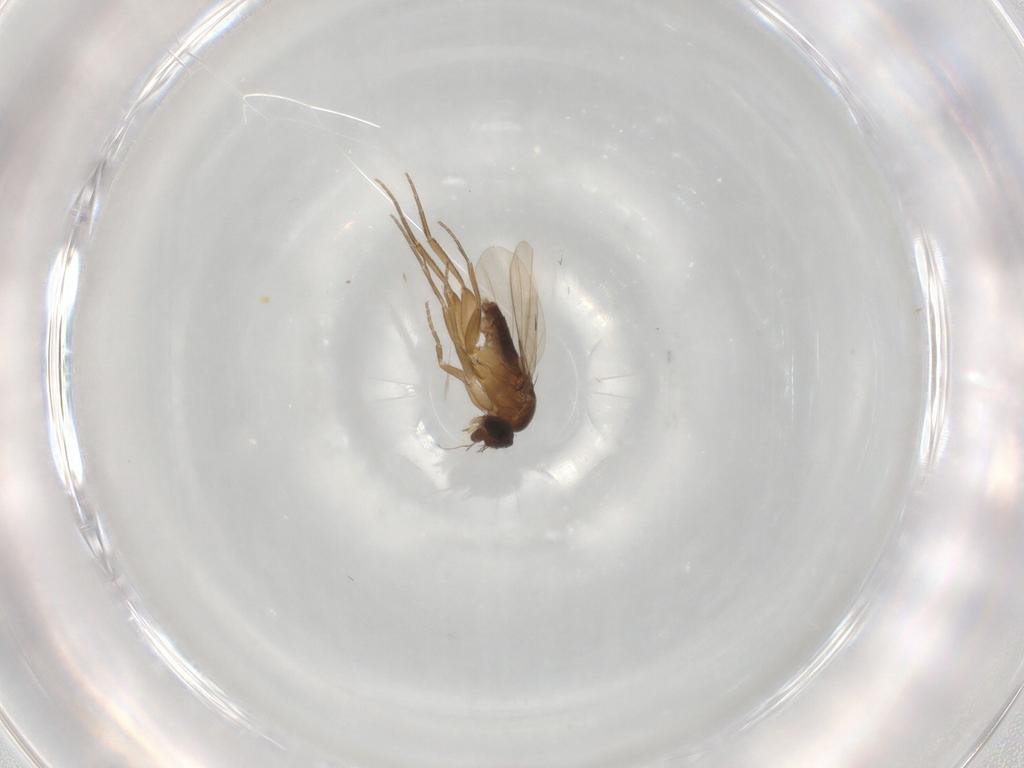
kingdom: Animalia
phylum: Arthropoda
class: Insecta
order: Diptera
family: Phoridae
